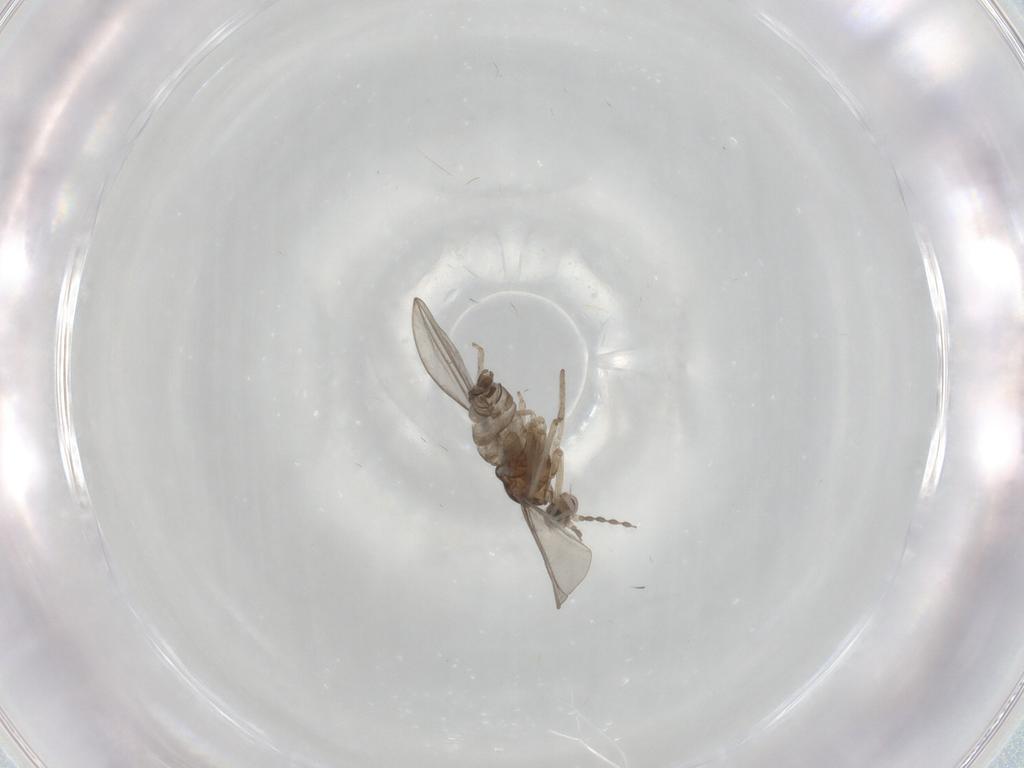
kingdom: Animalia
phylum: Arthropoda
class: Insecta
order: Diptera
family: Cecidomyiidae
